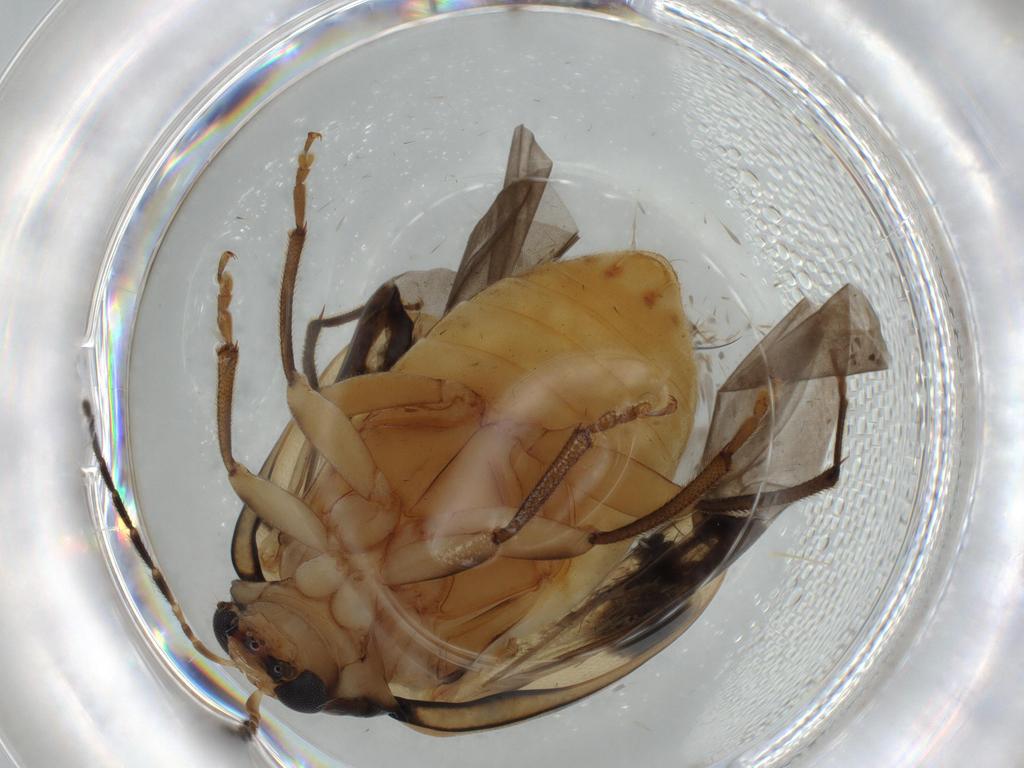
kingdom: Animalia
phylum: Arthropoda
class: Insecta
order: Coleoptera
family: Chrysomelidae
